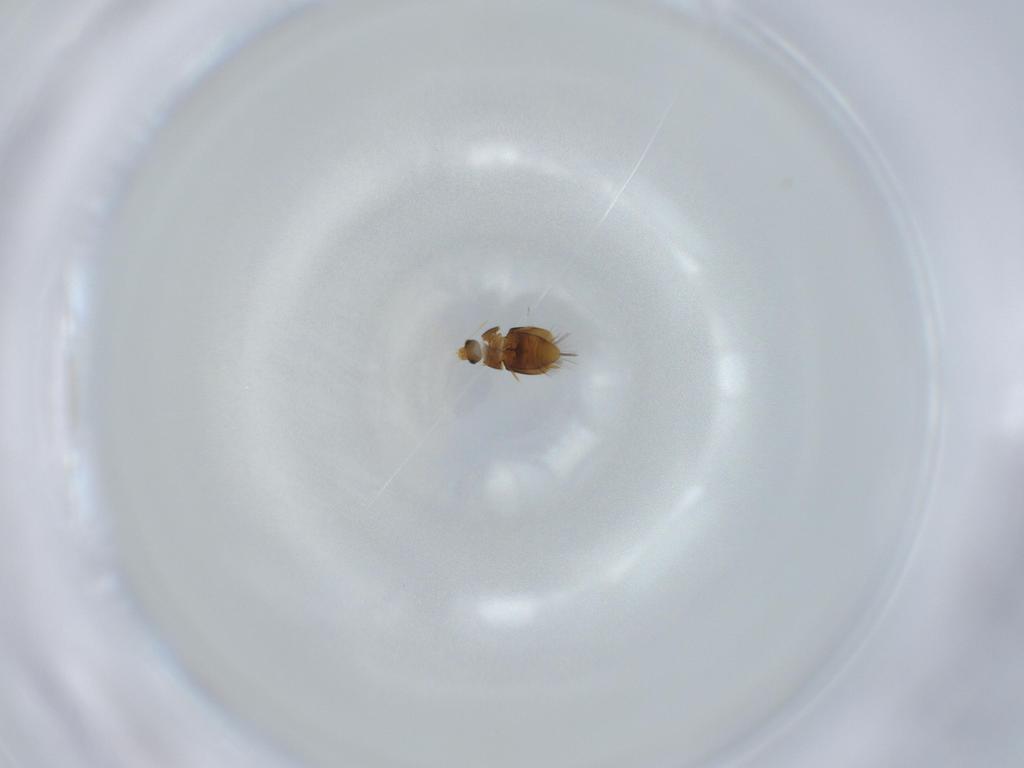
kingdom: Animalia
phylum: Arthropoda
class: Insecta
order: Coleoptera
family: Ptiliidae
